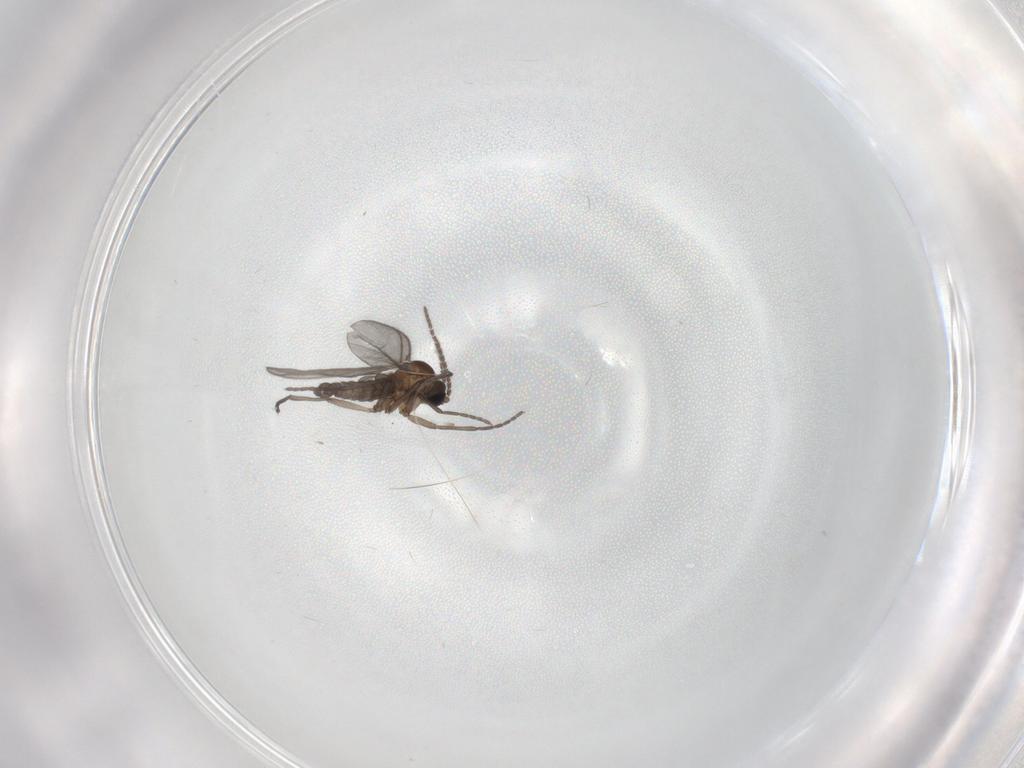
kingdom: Animalia
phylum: Arthropoda
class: Insecta
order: Diptera
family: Sciaridae
